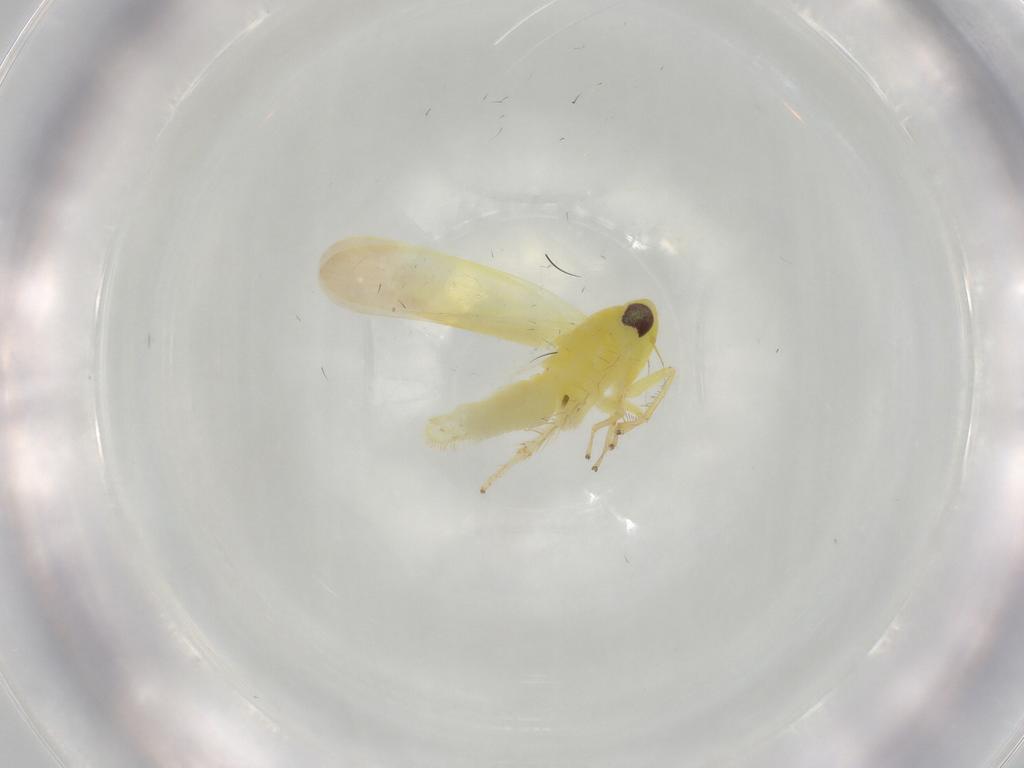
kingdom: Animalia
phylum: Arthropoda
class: Insecta
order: Hemiptera
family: Cicadellidae
